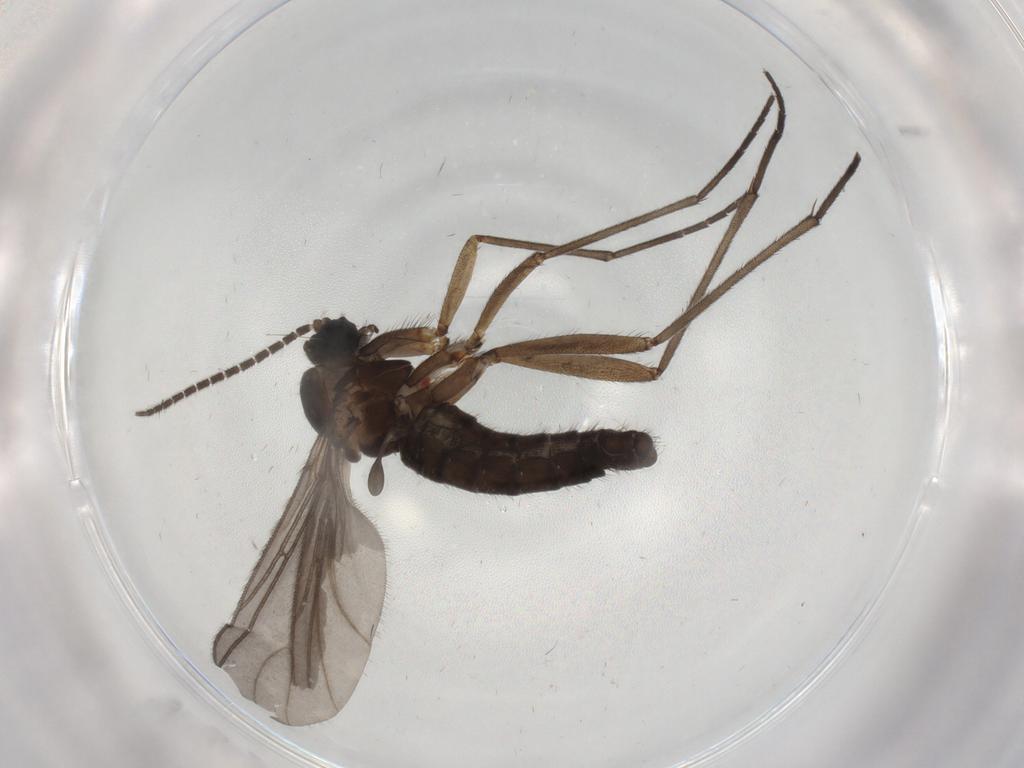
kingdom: Animalia
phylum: Arthropoda
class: Insecta
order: Diptera
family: Sciaridae
